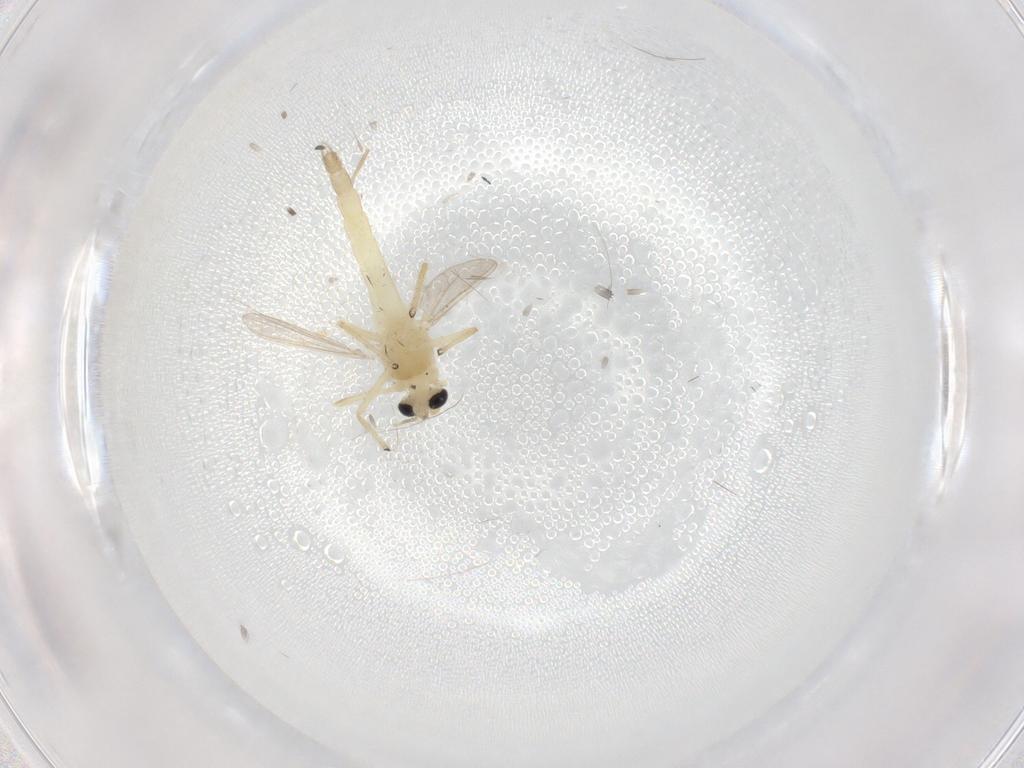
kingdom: Animalia
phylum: Arthropoda
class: Insecta
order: Diptera
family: Chironomidae
